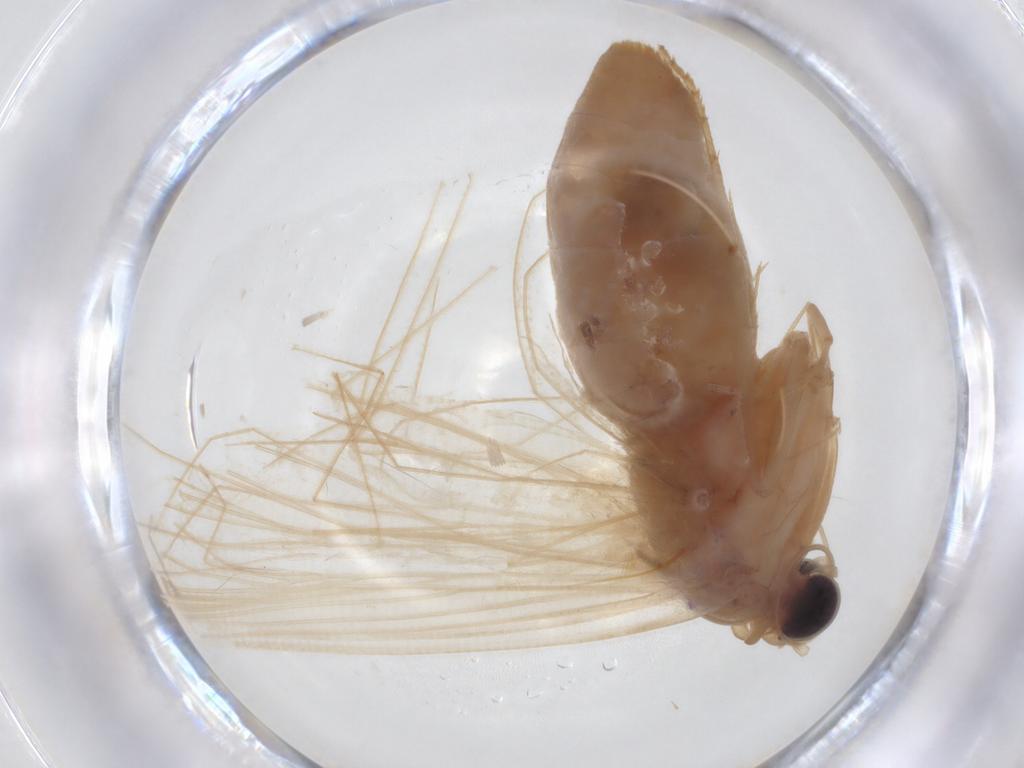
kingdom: Animalia
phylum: Arthropoda
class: Insecta
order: Lepidoptera
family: Erebidae
